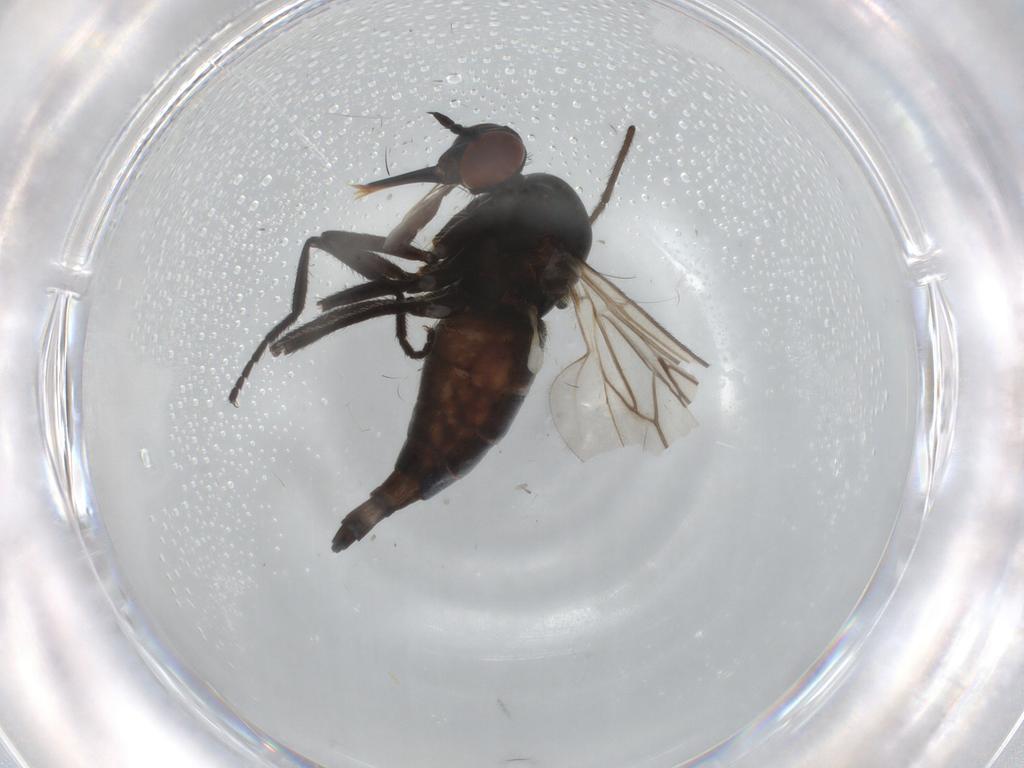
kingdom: Animalia
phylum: Arthropoda
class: Insecta
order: Diptera
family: Empididae
